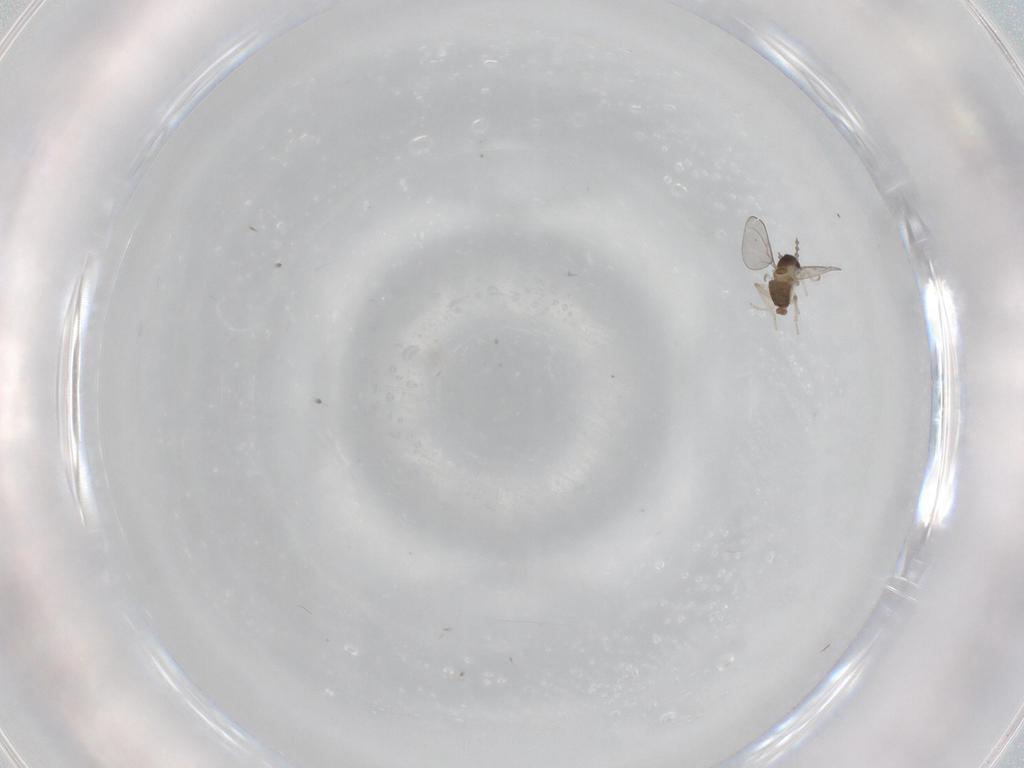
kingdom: Animalia
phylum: Arthropoda
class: Insecta
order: Diptera
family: Cecidomyiidae
